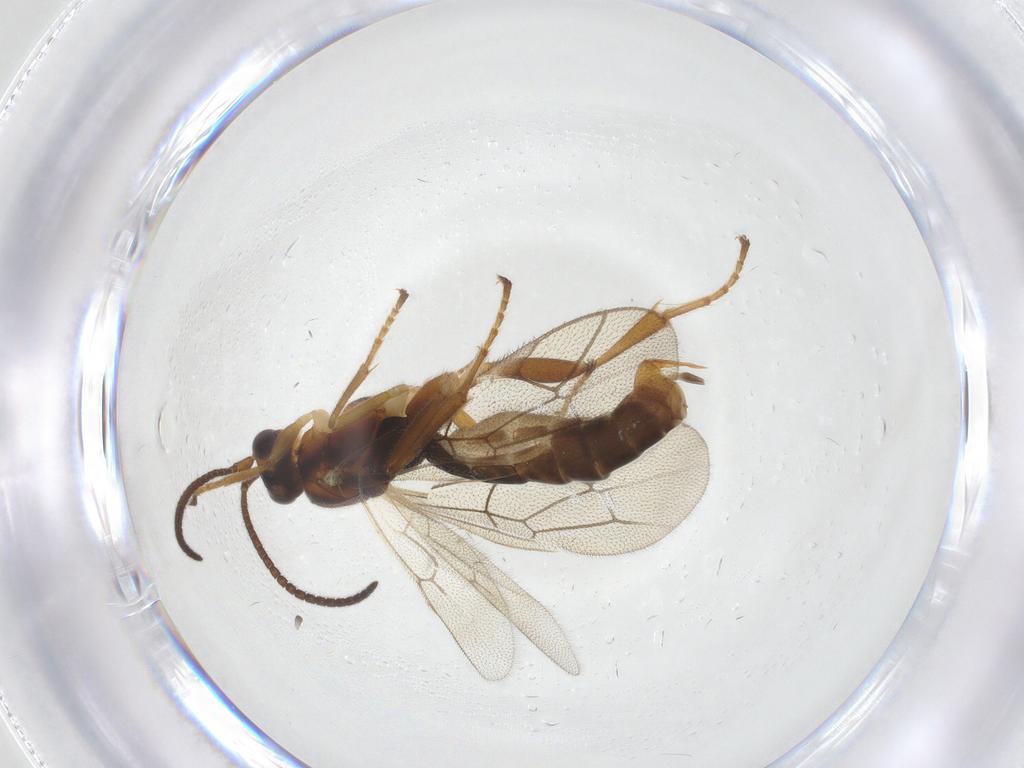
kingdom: Animalia
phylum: Arthropoda
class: Insecta
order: Hymenoptera
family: Ichneumonidae
